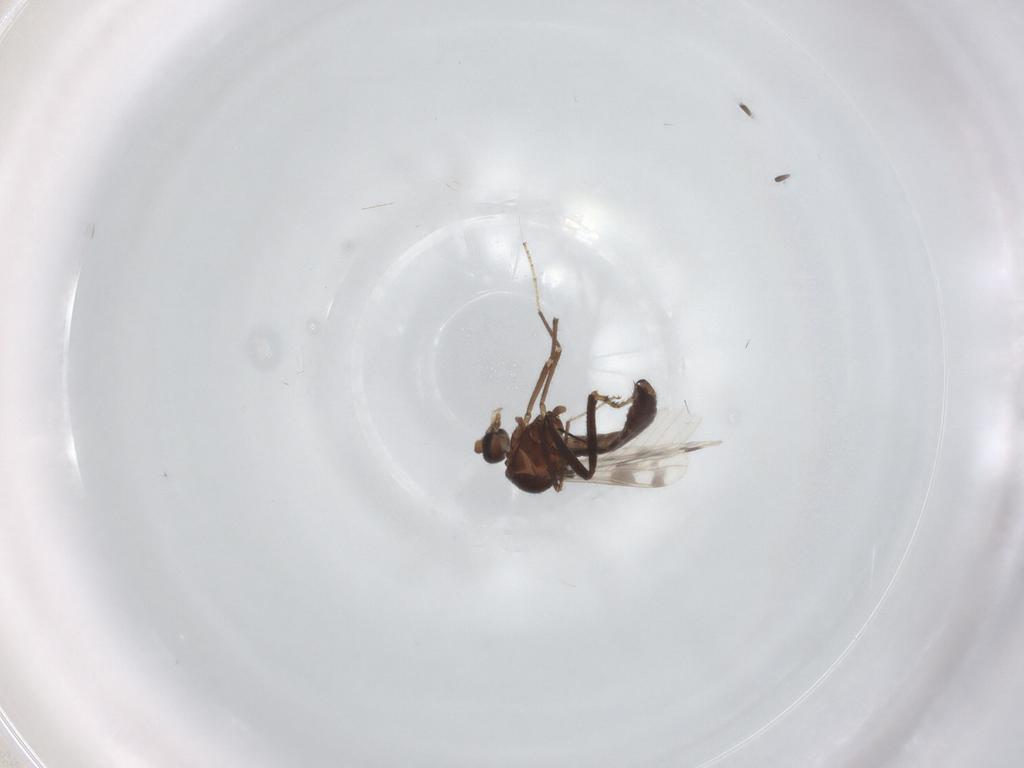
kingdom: Animalia
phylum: Arthropoda
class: Insecta
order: Diptera
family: Ceratopogonidae
